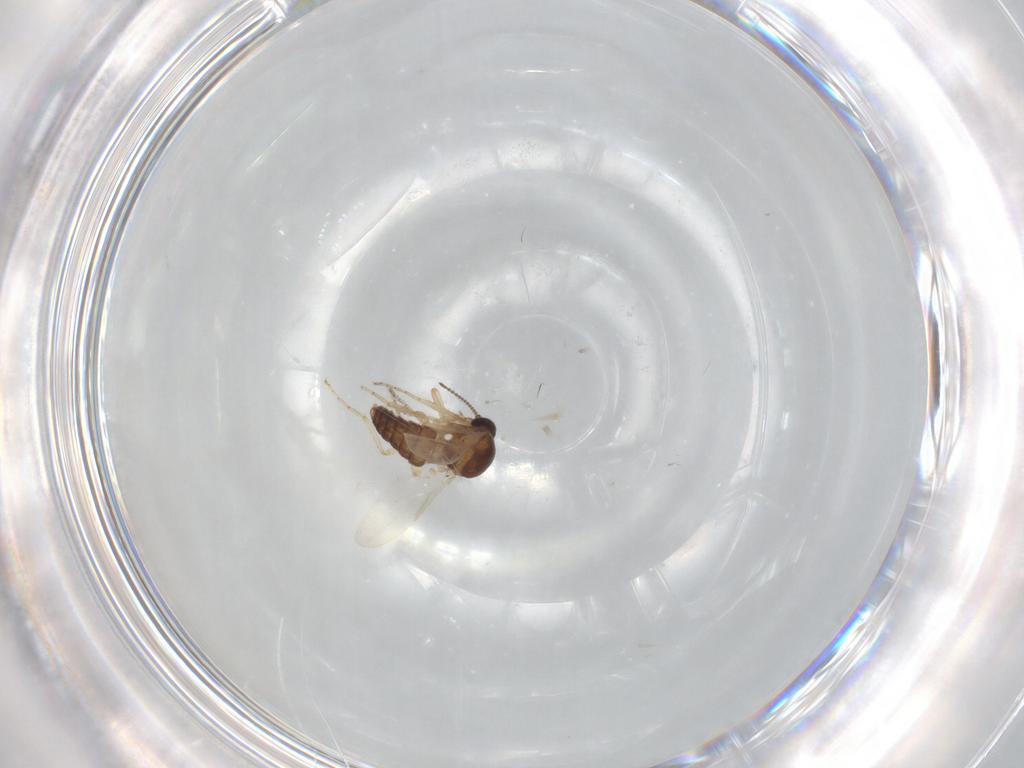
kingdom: Animalia
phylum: Arthropoda
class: Insecta
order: Diptera
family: Ceratopogonidae
